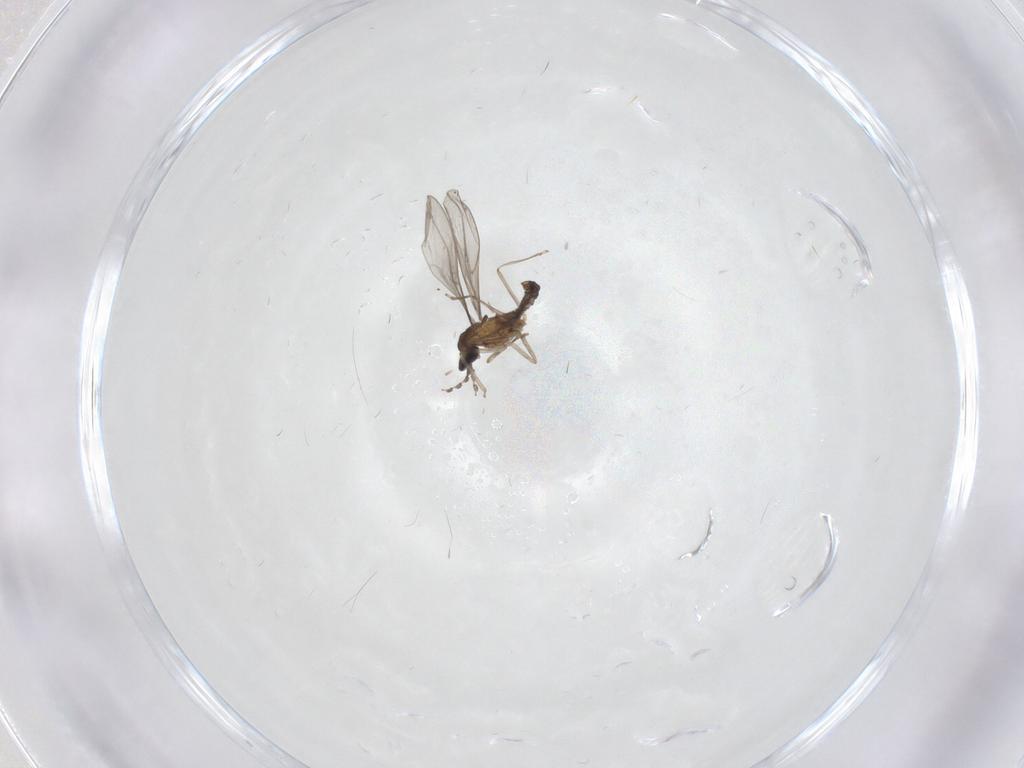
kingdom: Animalia
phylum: Arthropoda
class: Insecta
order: Diptera
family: Cecidomyiidae
